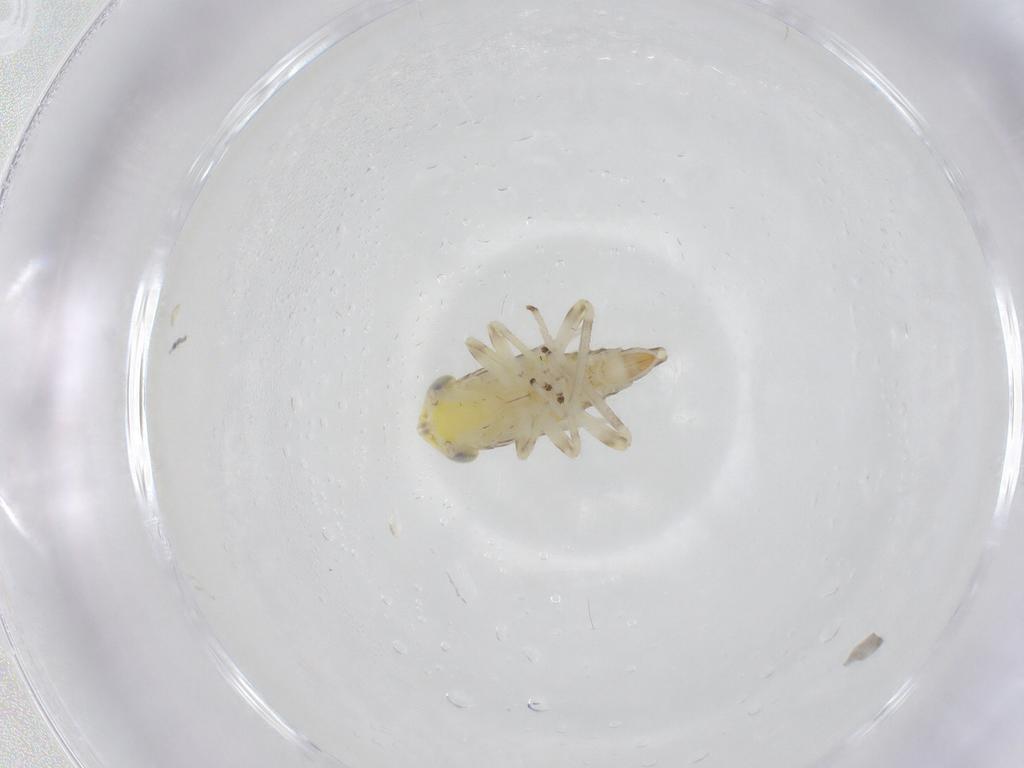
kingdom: Animalia
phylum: Arthropoda
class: Insecta
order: Hemiptera
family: Cicadellidae
